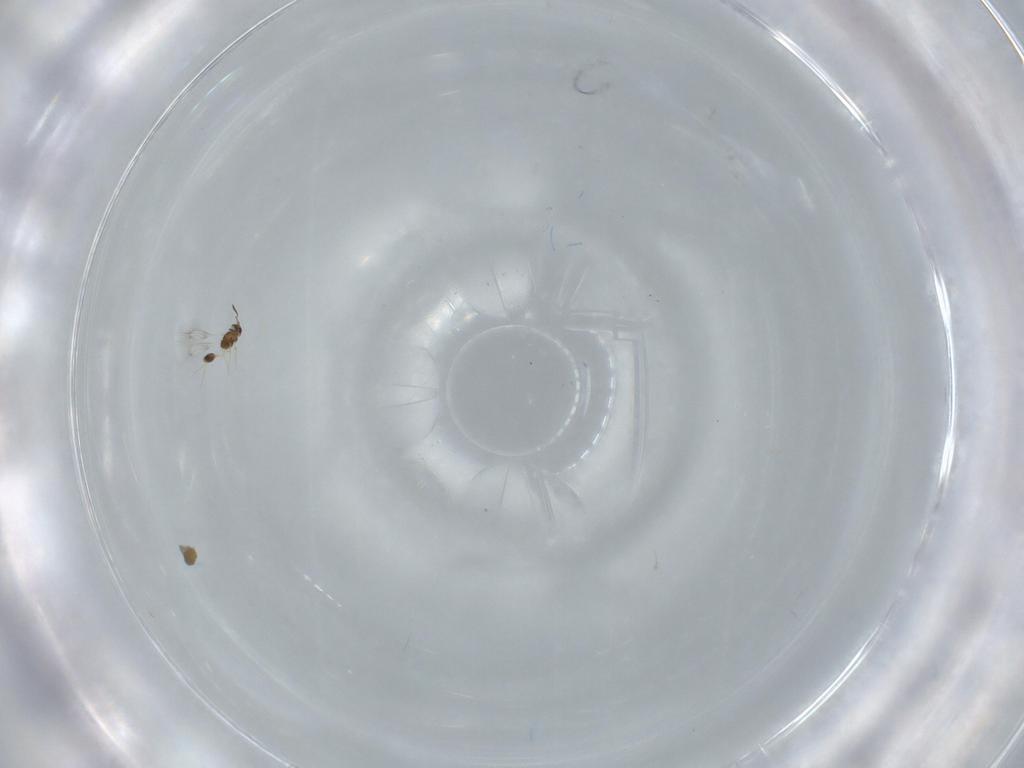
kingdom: Animalia
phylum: Arthropoda
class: Insecta
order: Hymenoptera
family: Mymarommatidae
